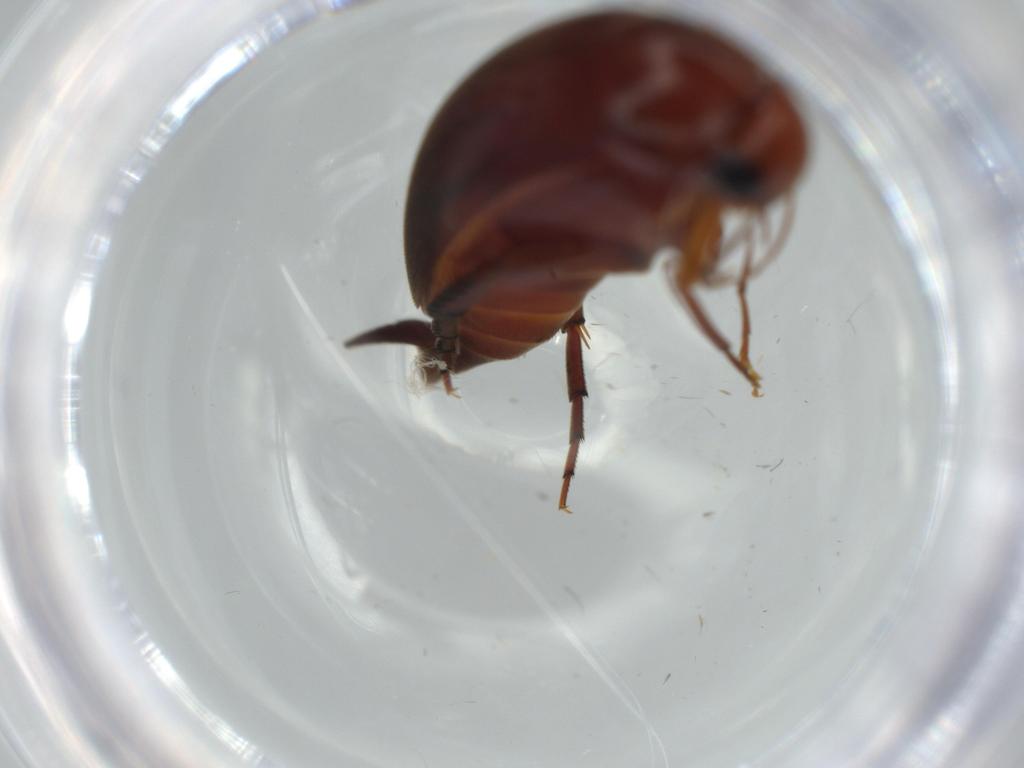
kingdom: Animalia
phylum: Arthropoda
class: Insecta
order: Coleoptera
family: Mordellidae
